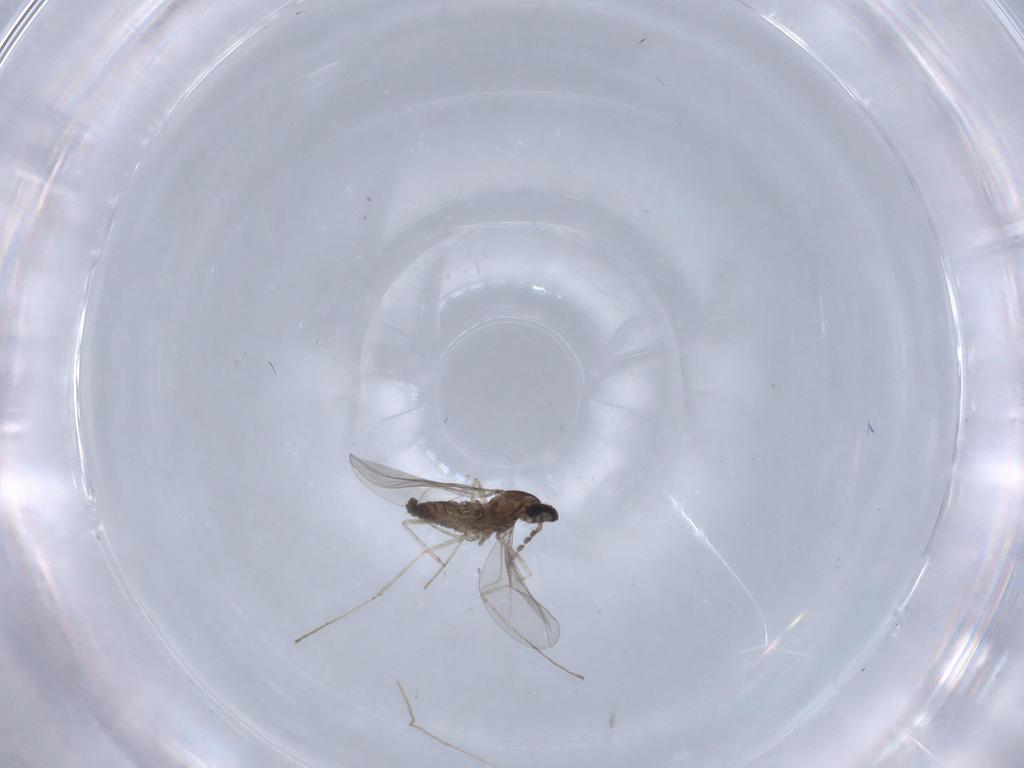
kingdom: Animalia
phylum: Arthropoda
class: Insecta
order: Diptera
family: Cecidomyiidae
